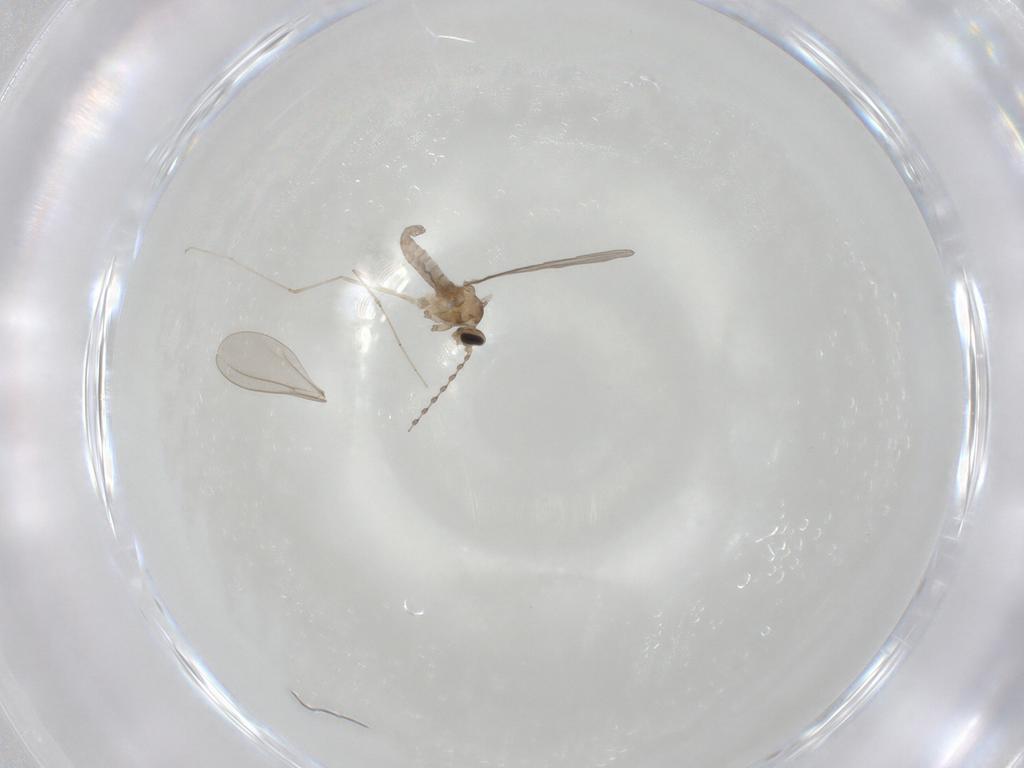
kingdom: Animalia
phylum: Arthropoda
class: Insecta
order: Diptera
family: Cecidomyiidae
